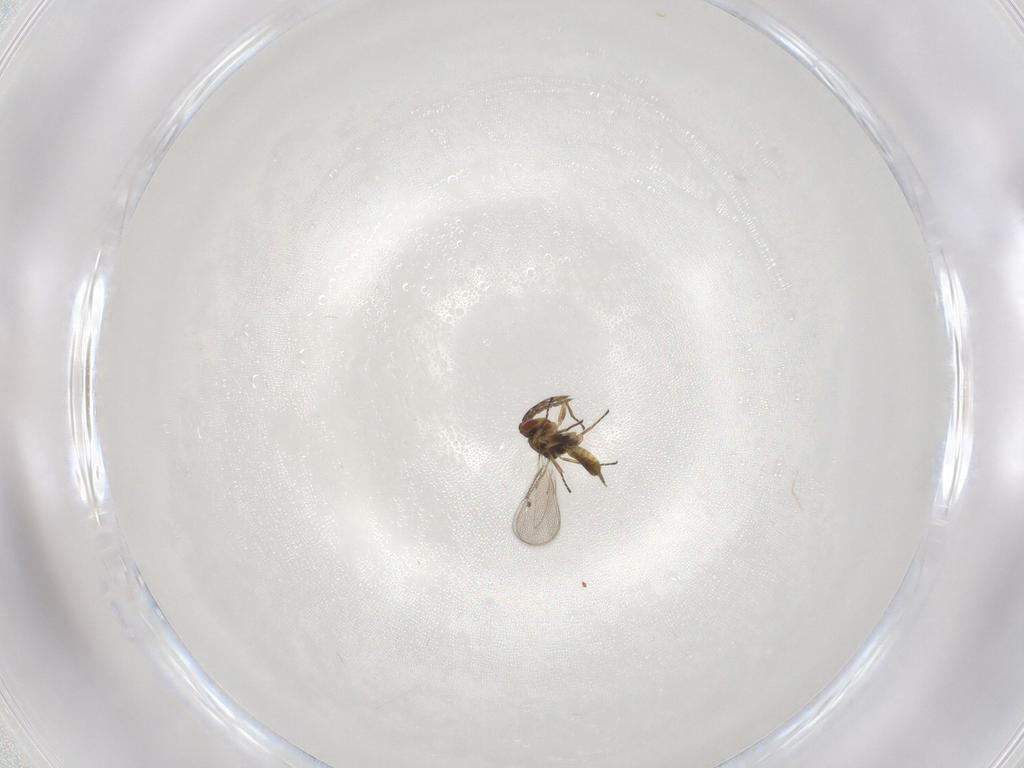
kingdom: Animalia
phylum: Arthropoda
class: Insecta
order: Hymenoptera
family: Eulophidae
